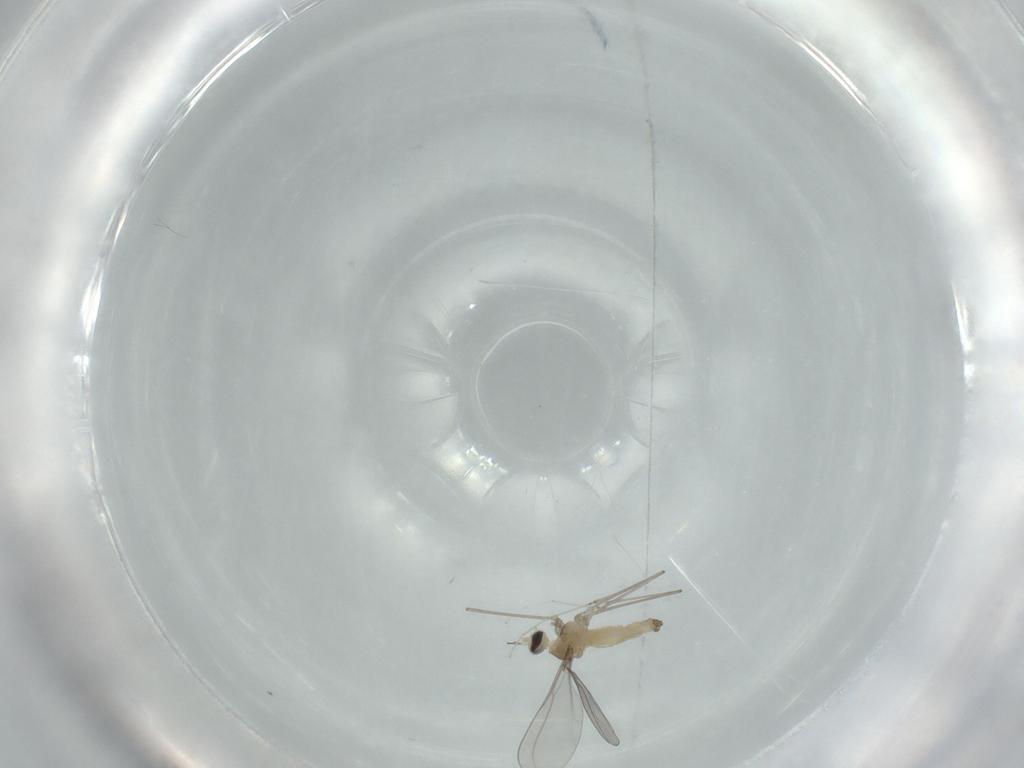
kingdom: Animalia
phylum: Arthropoda
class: Insecta
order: Diptera
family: Cecidomyiidae
